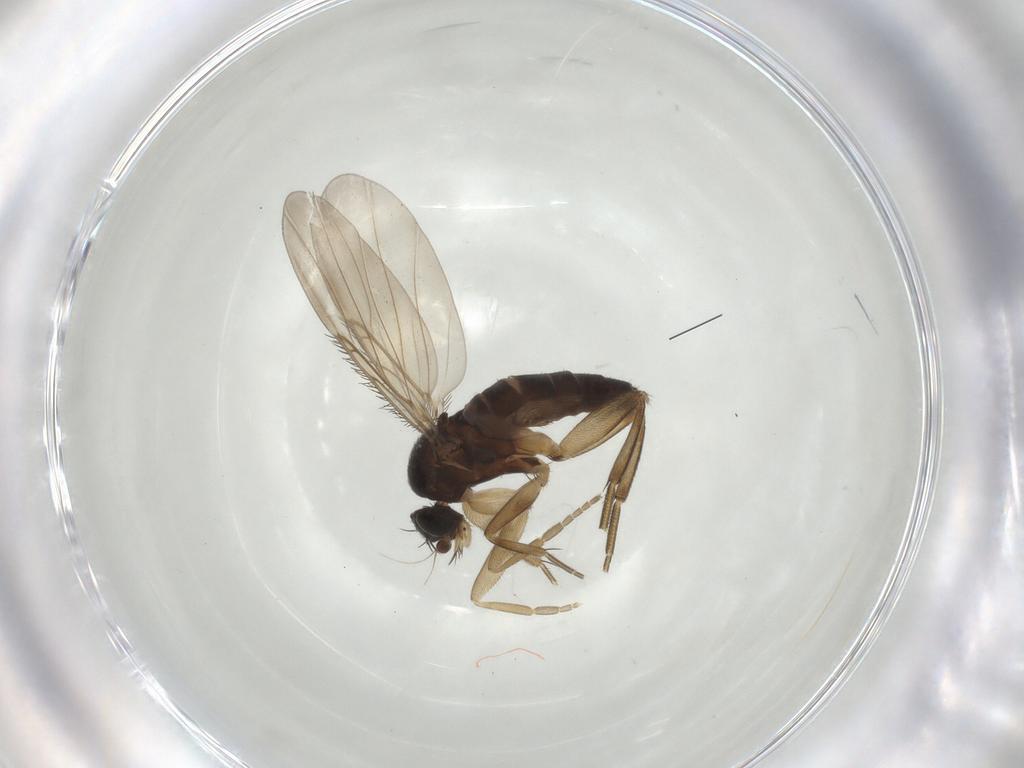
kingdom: Animalia
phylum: Arthropoda
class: Insecta
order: Diptera
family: Phoridae
